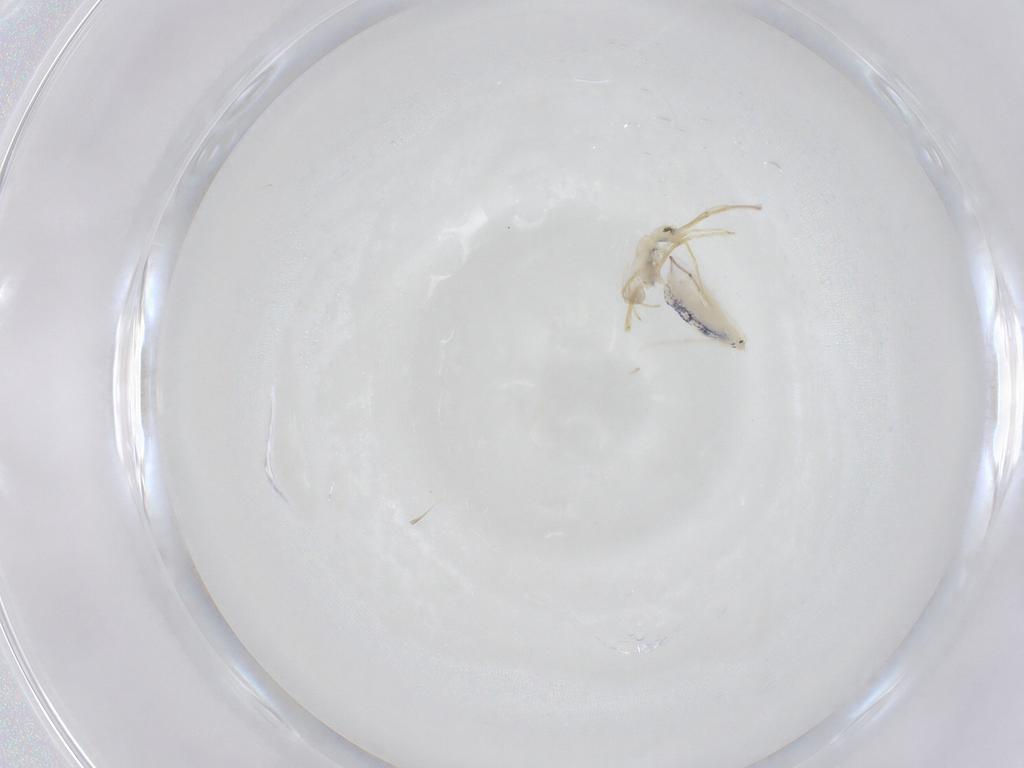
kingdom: Animalia
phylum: Arthropoda
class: Collembola
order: Entomobryomorpha
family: Entomobryidae
